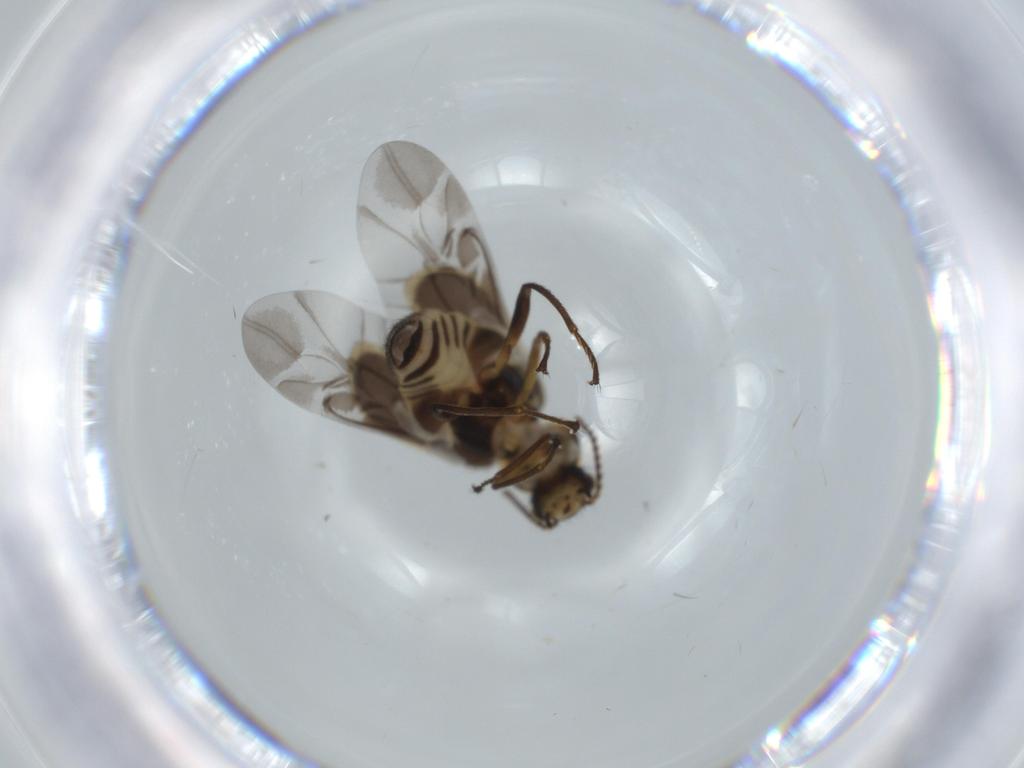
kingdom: Animalia
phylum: Arthropoda
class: Insecta
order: Coleoptera
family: Melyridae
